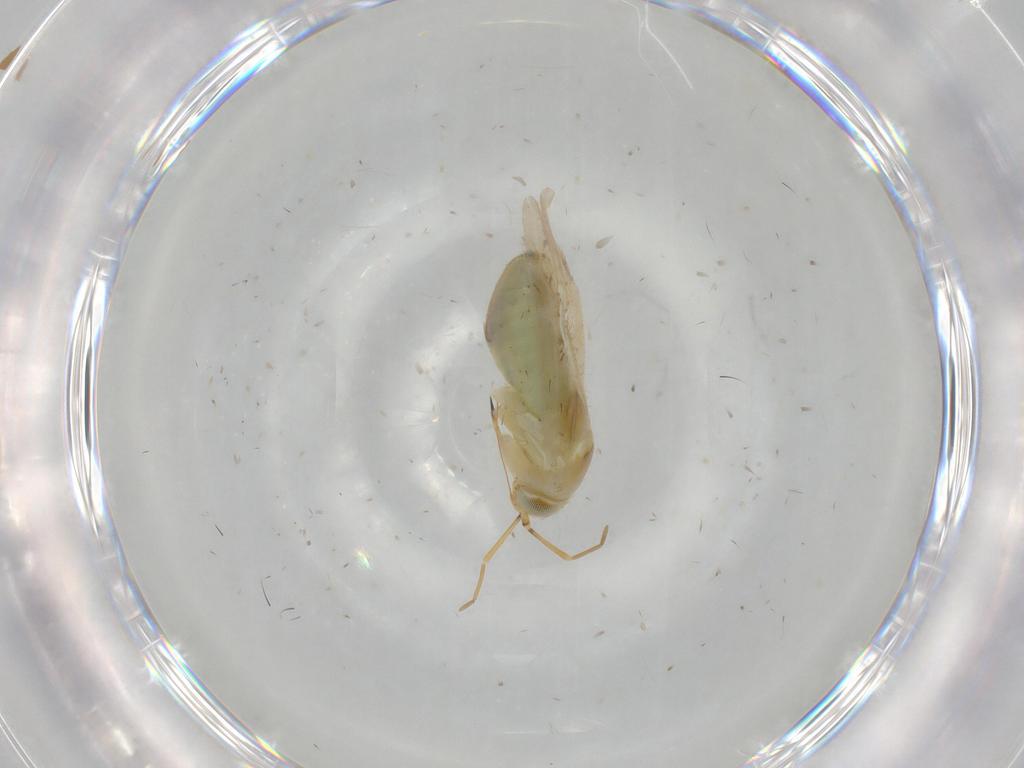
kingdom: Animalia
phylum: Arthropoda
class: Insecta
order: Hemiptera
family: Miridae
